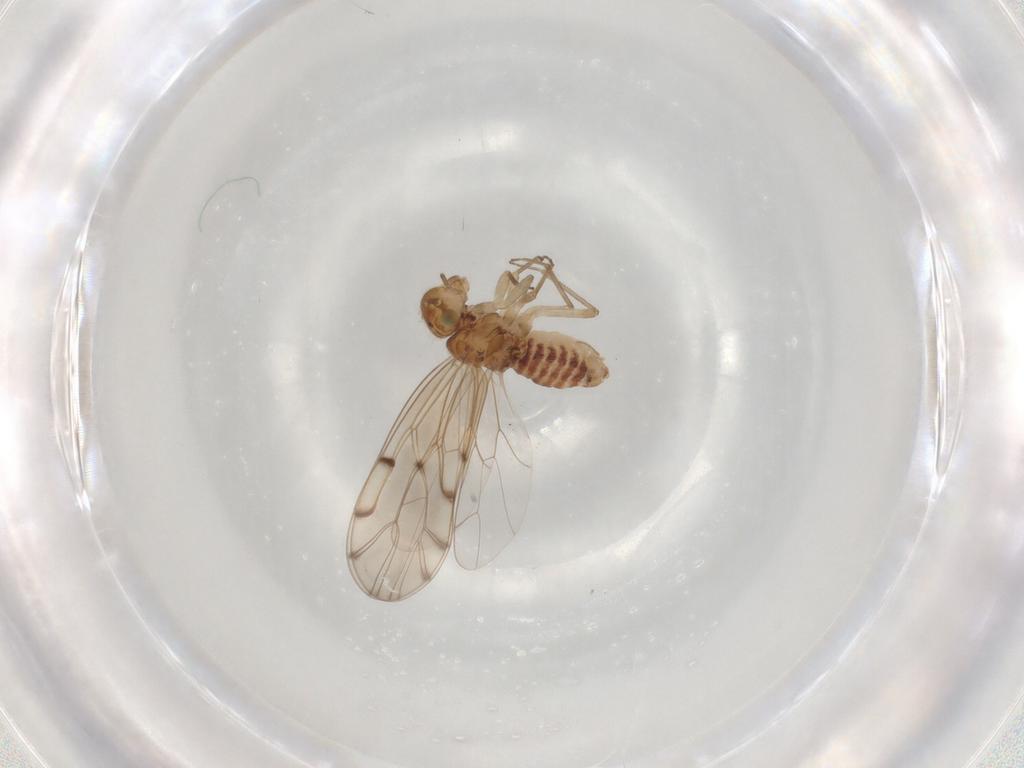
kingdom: Animalia
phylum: Arthropoda
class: Insecta
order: Psocodea
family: Lachesillidae
